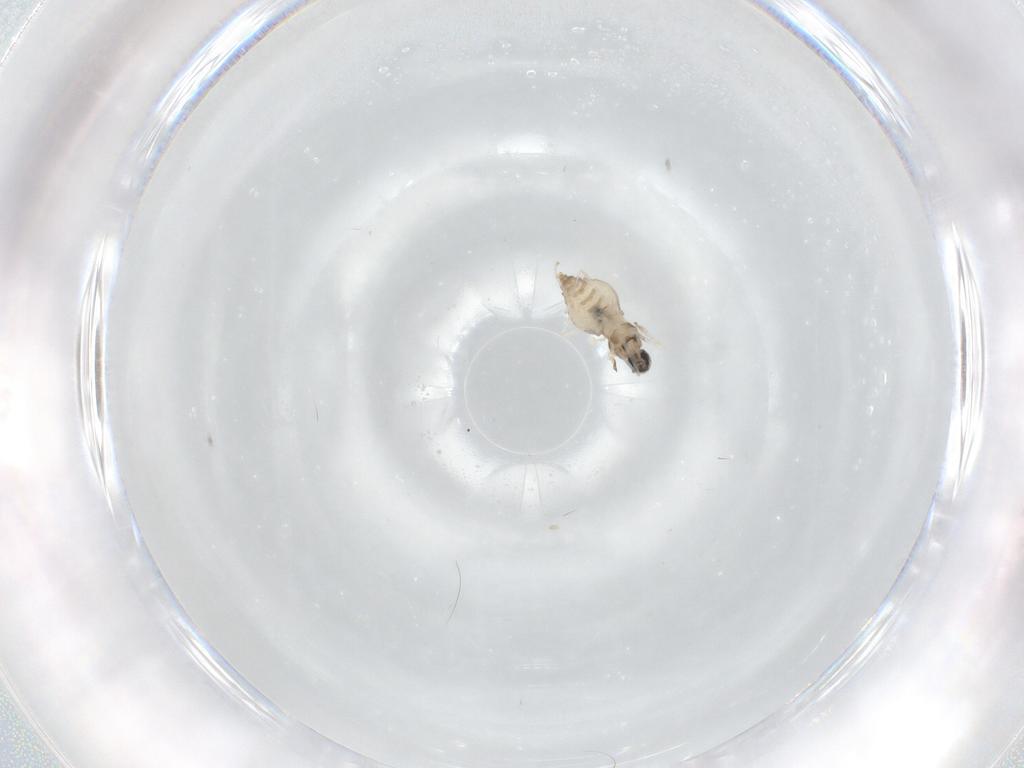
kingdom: Animalia
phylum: Arthropoda
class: Insecta
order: Diptera
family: Cecidomyiidae
